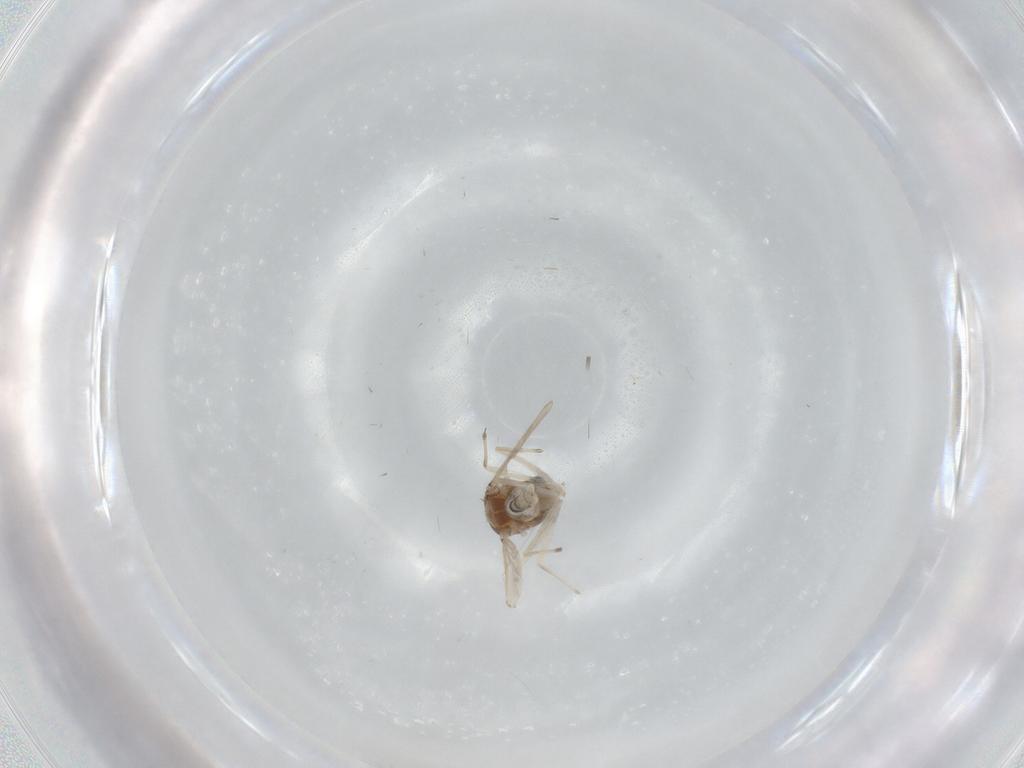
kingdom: Animalia
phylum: Arthropoda
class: Insecta
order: Diptera
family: Chironomidae
